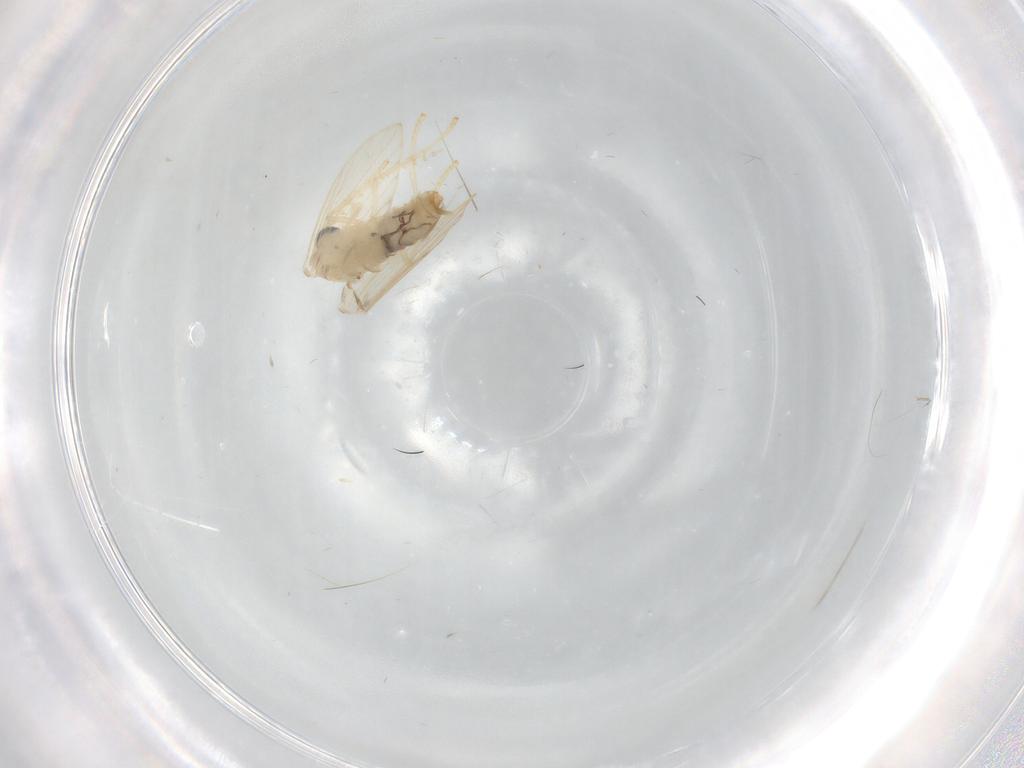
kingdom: Animalia
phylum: Arthropoda
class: Insecta
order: Diptera
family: Psychodidae
